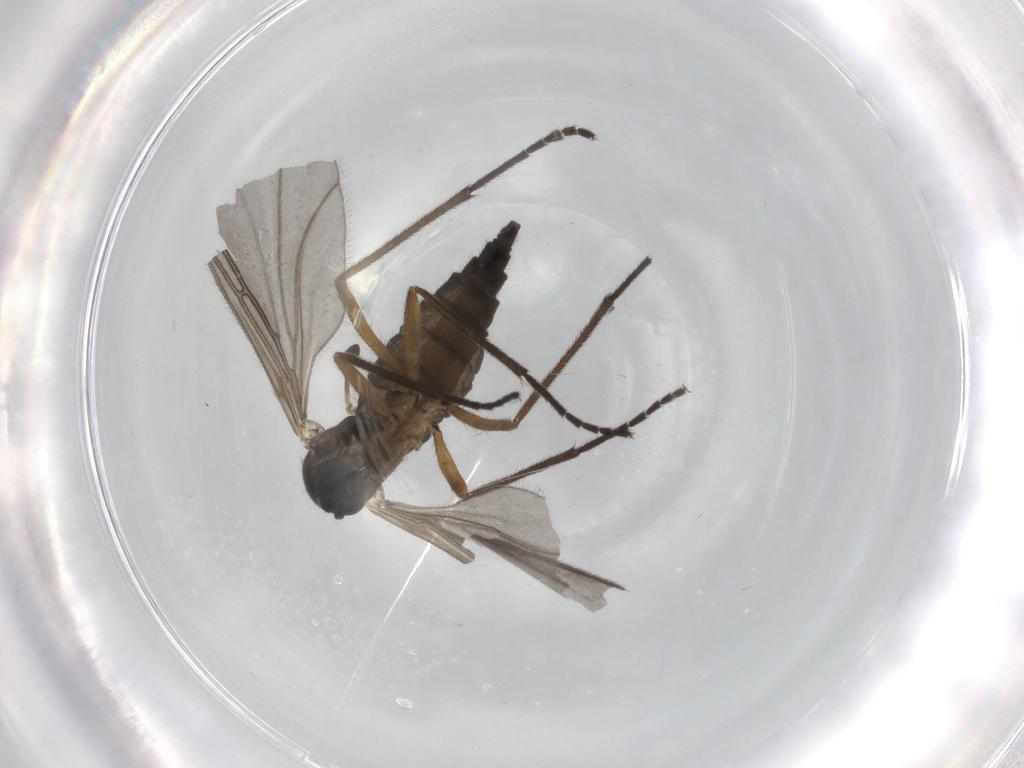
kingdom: Animalia
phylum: Arthropoda
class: Insecta
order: Diptera
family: Sciaridae
